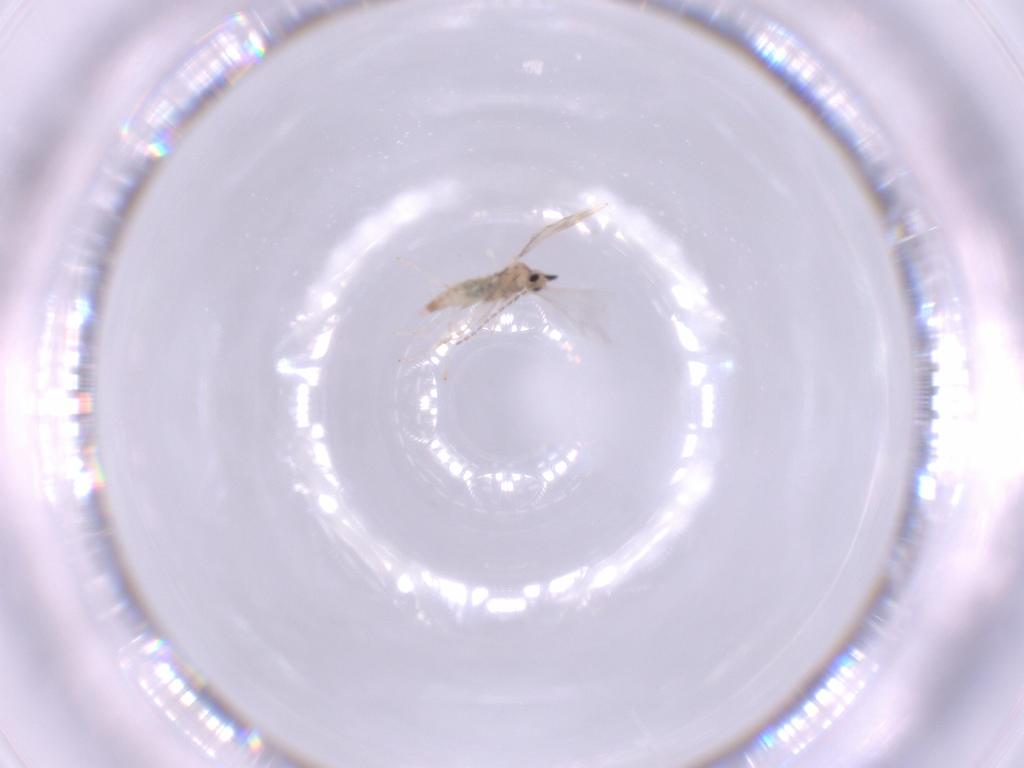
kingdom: Animalia
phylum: Arthropoda
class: Insecta
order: Diptera
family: Cecidomyiidae
